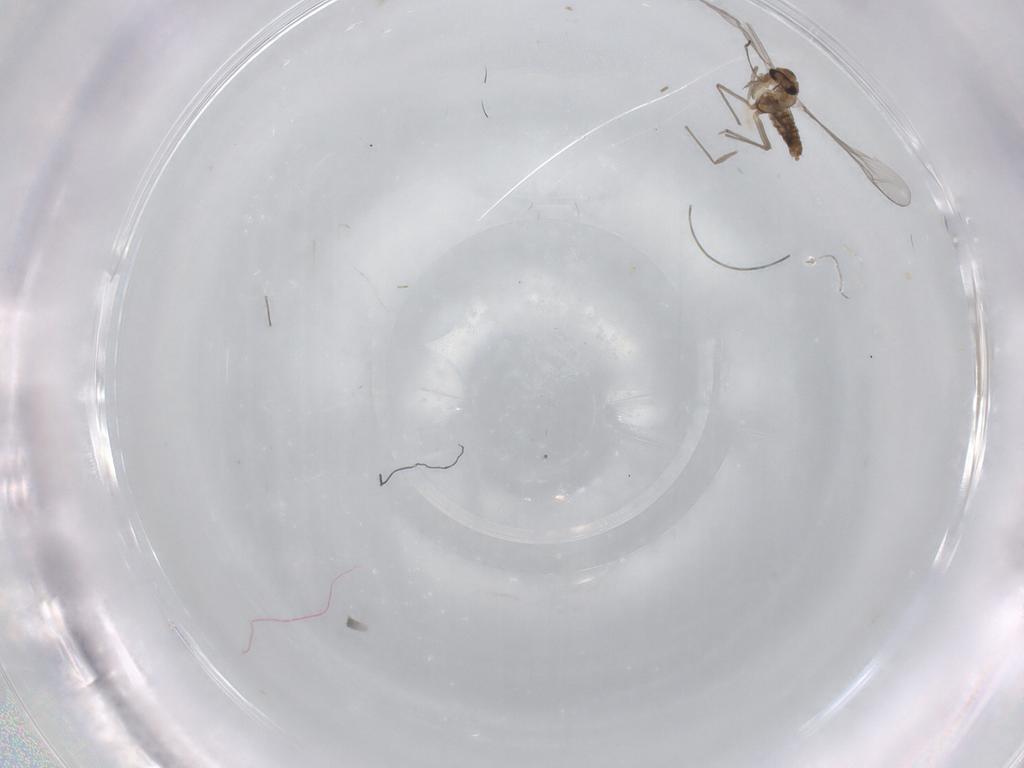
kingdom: Animalia
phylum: Arthropoda
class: Insecta
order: Diptera
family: Chironomidae
